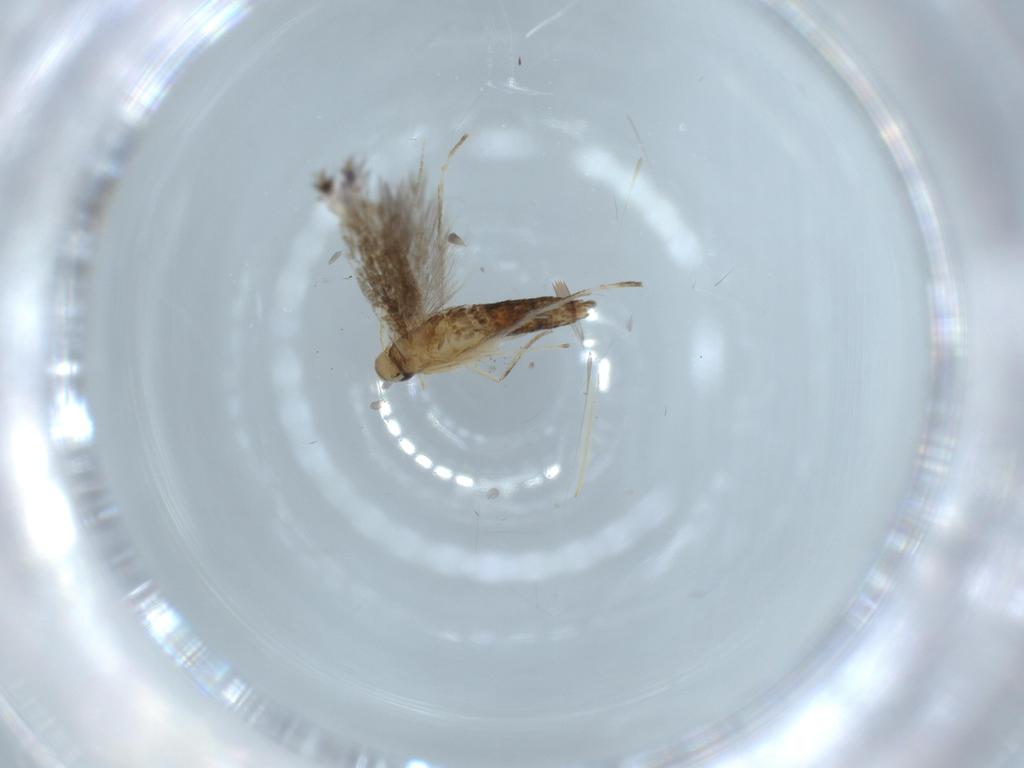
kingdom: Animalia
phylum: Arthropoda
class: Insecta
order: Lepidoptera
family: Nepticulidae
